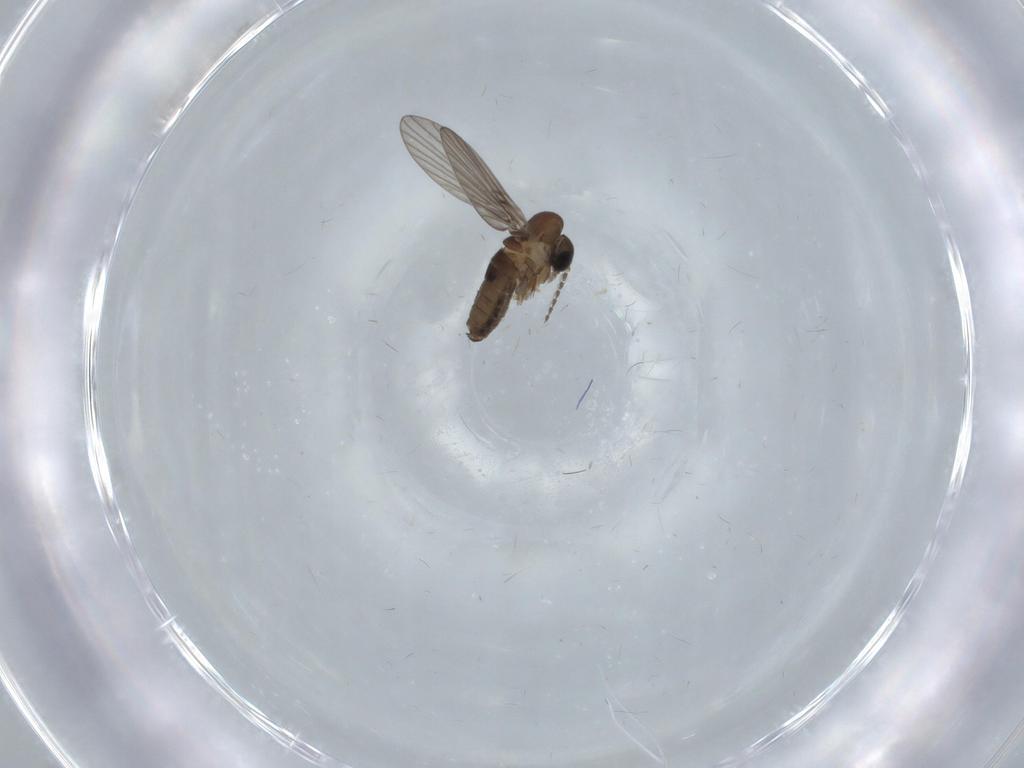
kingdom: Animalia
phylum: Arthropoda
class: Insecta
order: Diptera
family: Psychodidae
